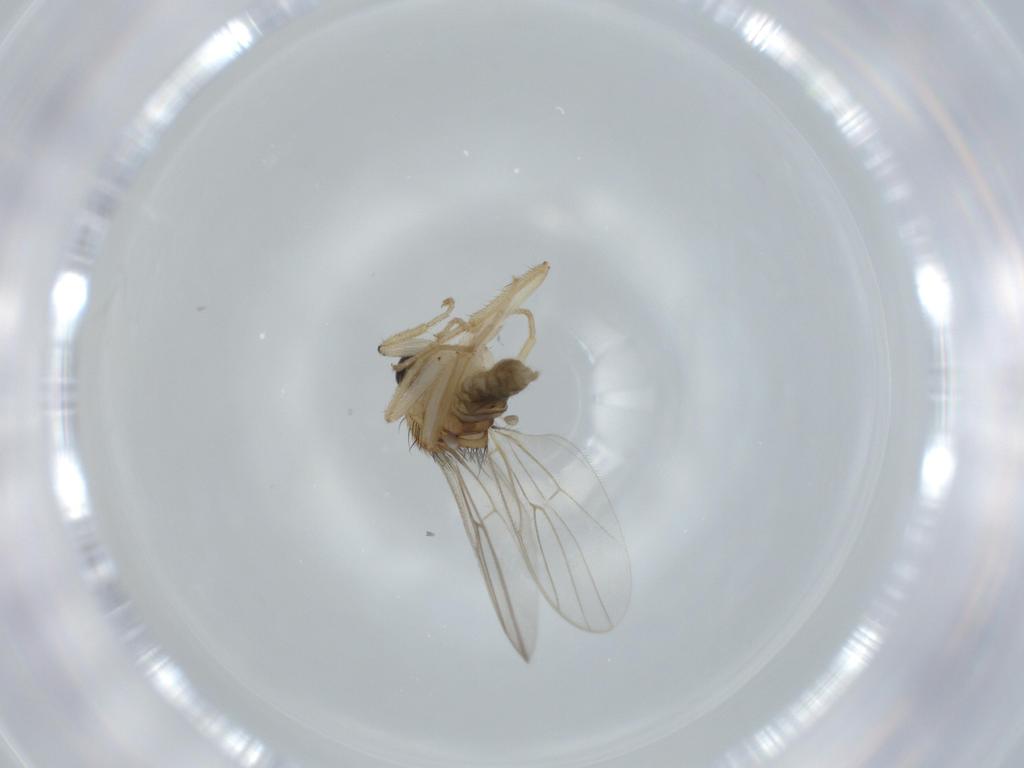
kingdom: Animalia
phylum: Arthropoda
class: Insecta
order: Diptera
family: Hybotidae
